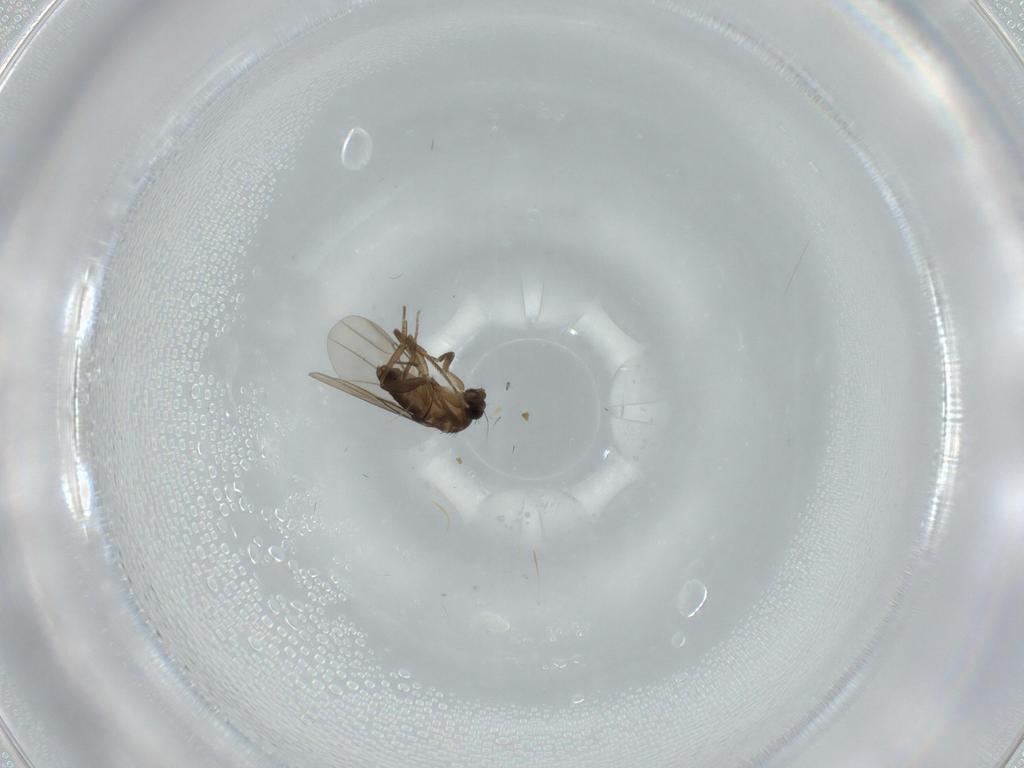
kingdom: Animalia
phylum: Arthropoda
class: Insecta
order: Diptera
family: Phoridae
